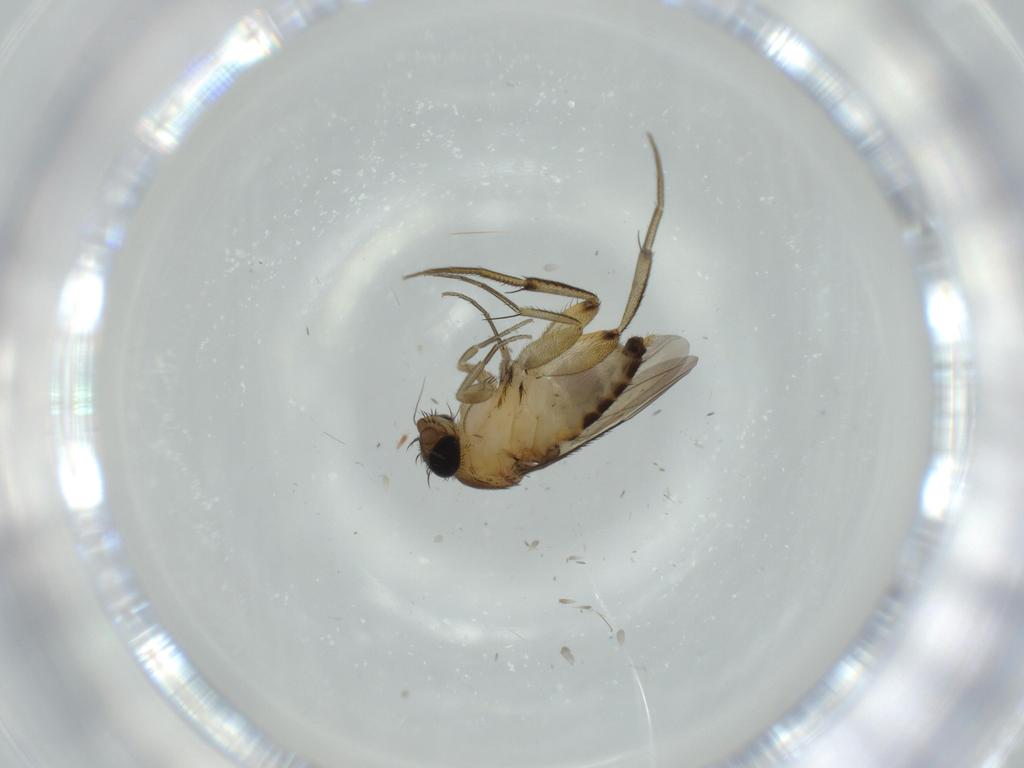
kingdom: Animalia
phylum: Arthropoda
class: Insecta
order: Diptera
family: Phoridae
